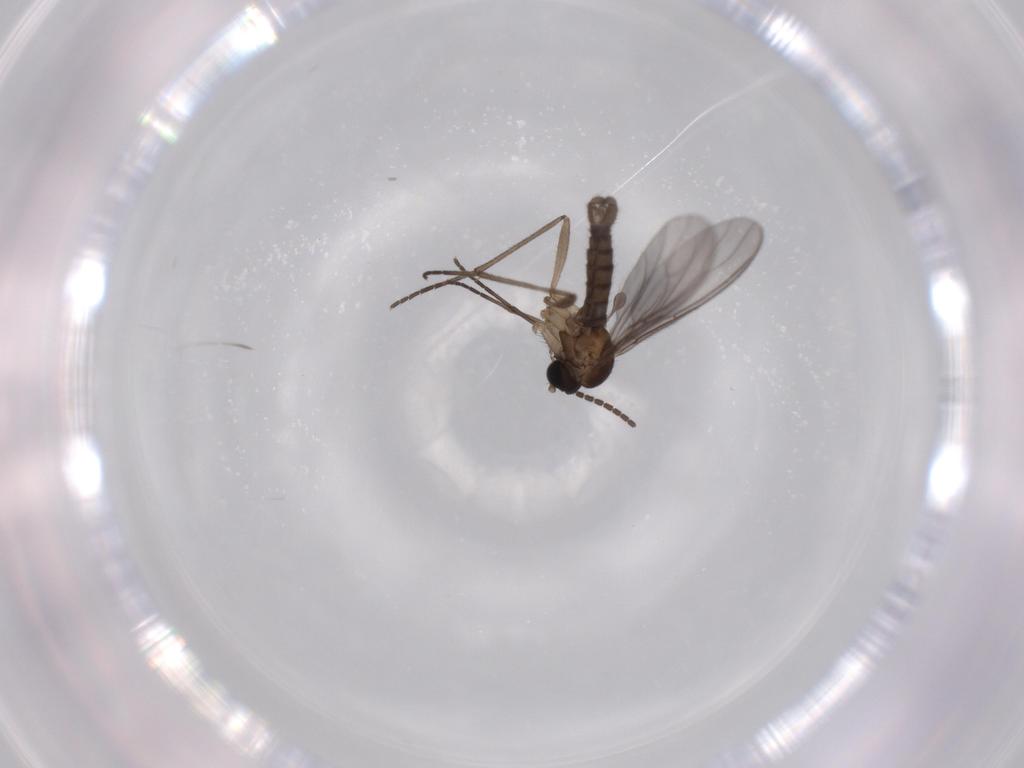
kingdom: Animalia
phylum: Arthropoda
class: Insecta
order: Diptera
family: Sciaridae
